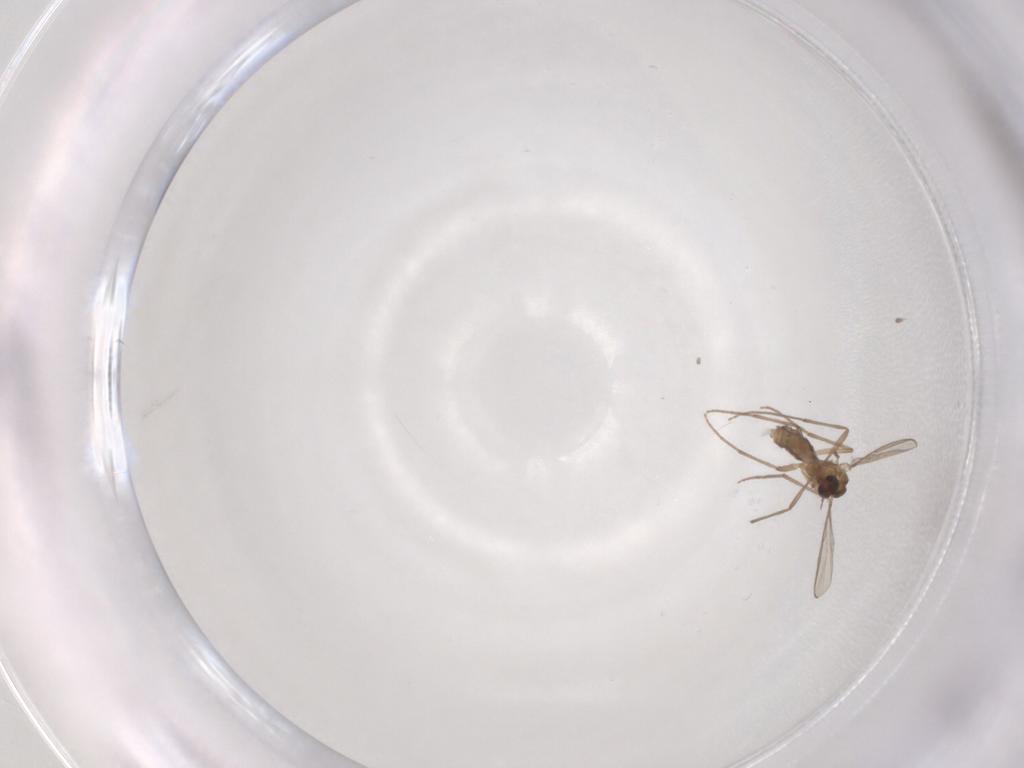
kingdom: Animalia
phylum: Arthropoda
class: Insecta
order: Diptera
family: Chironomidae
